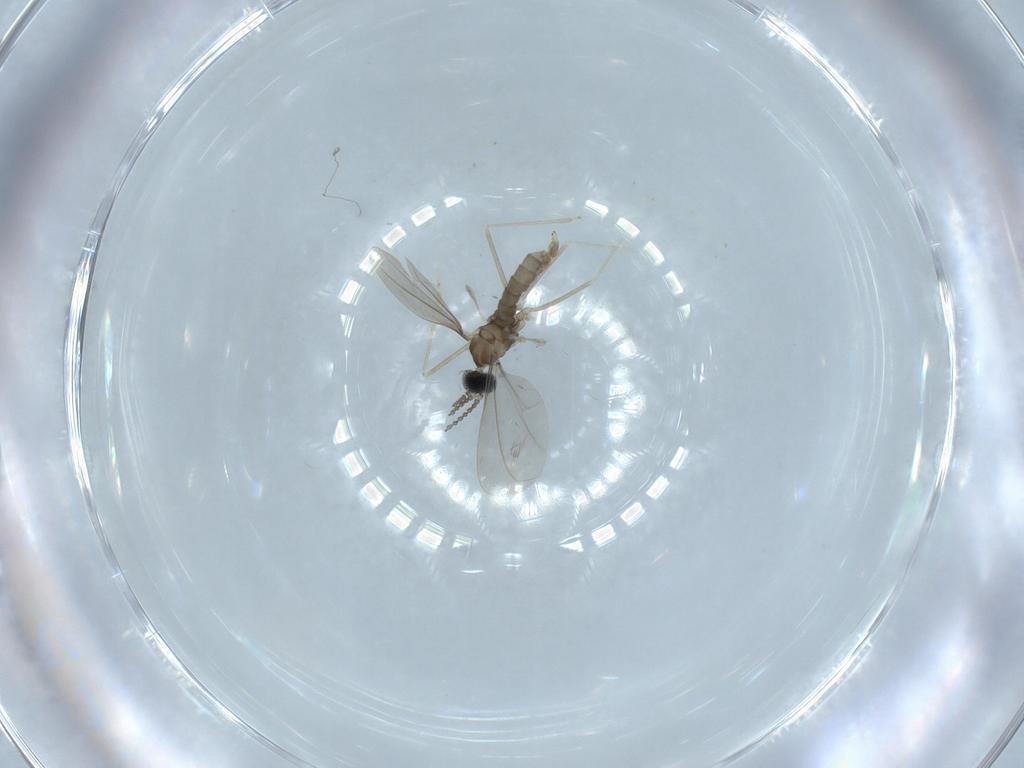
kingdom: Animalia
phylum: Arthropoda
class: Insecta
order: Diptera
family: Cecidomyiidae
